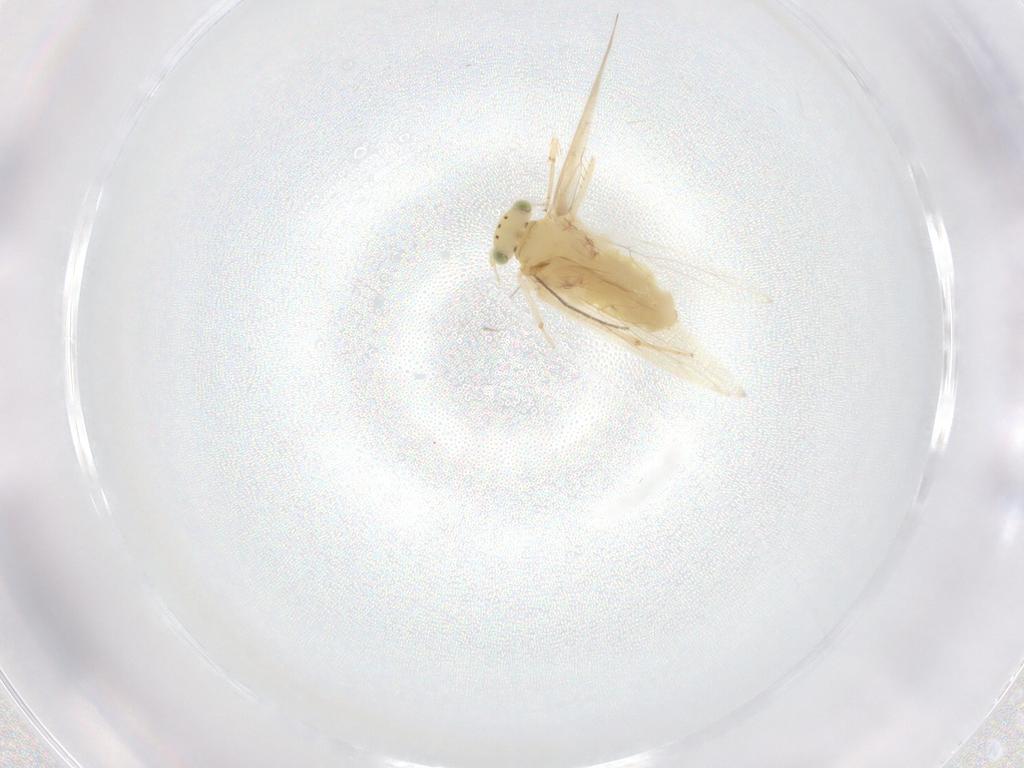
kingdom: Animalia
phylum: Arthropoda
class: Insecta
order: Psocodea
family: Lepidopsocidae
